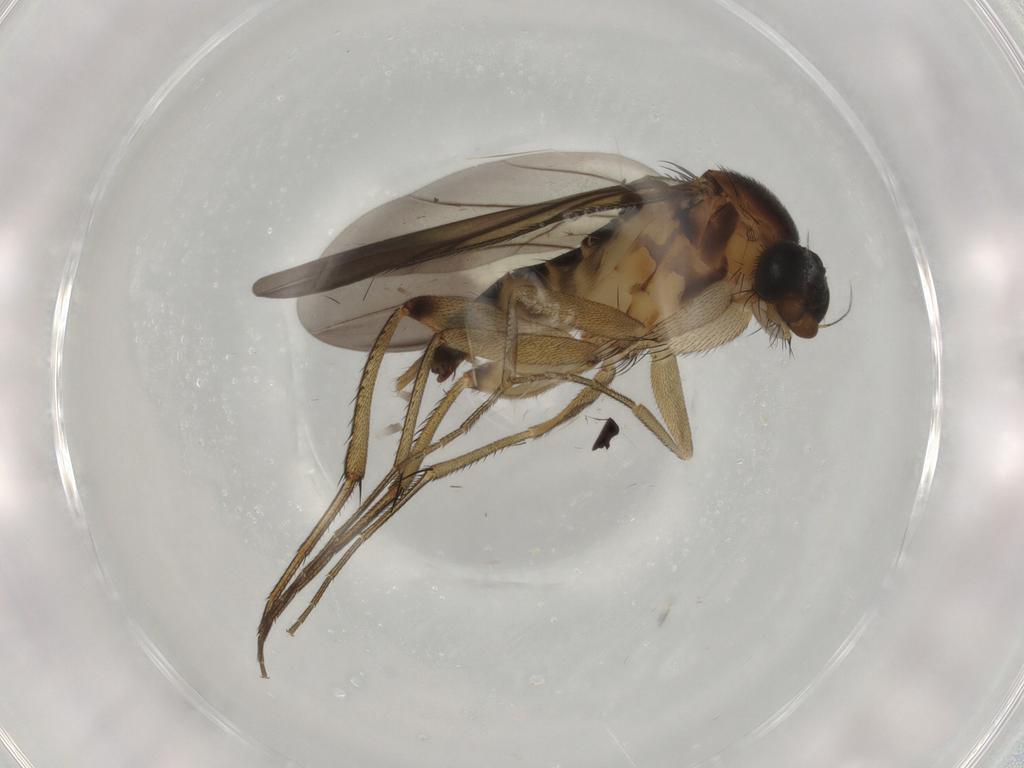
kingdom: Animalia
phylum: Arthropoda
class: Insecta
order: Diptera
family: Phoridae
